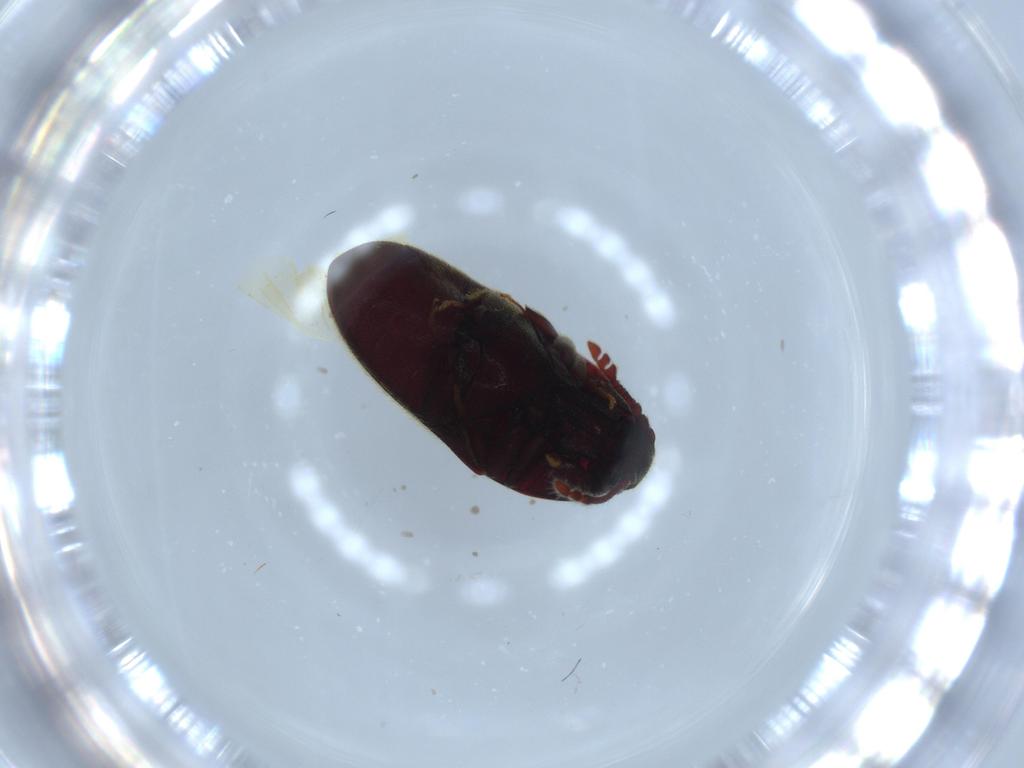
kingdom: Animalia
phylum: Arthropoda
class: Insecta
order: Coleoptera
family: Throscidae
